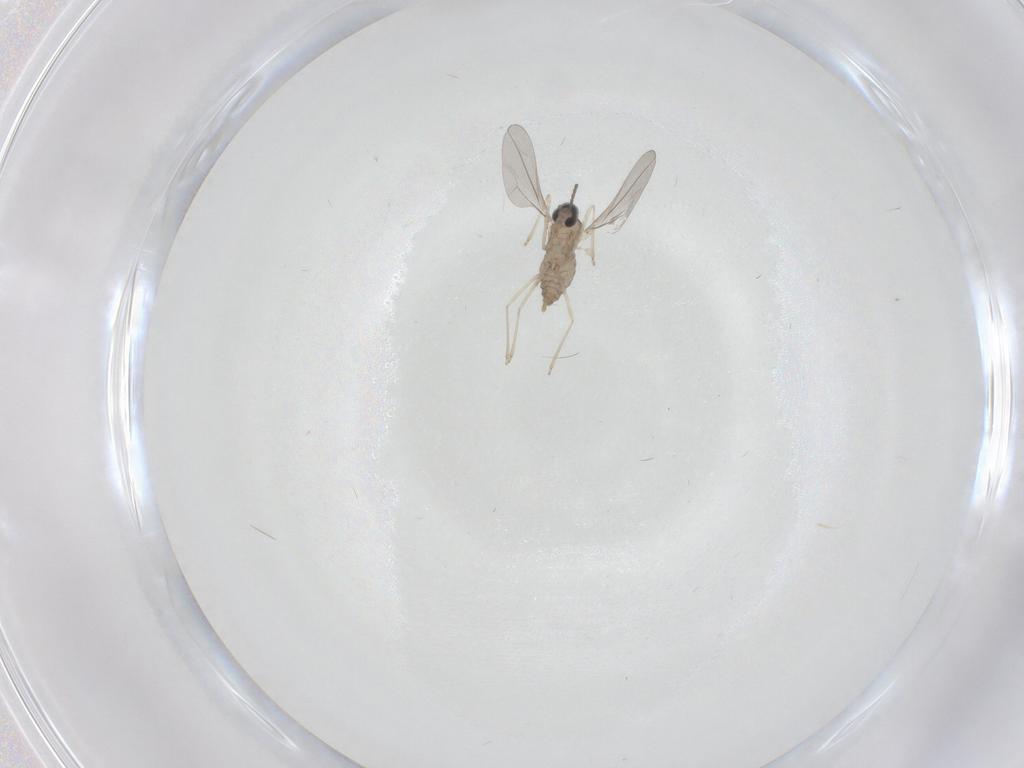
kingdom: Animalia
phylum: Arthropoda
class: Insecta
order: Diptera
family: Cecidomyiidae
